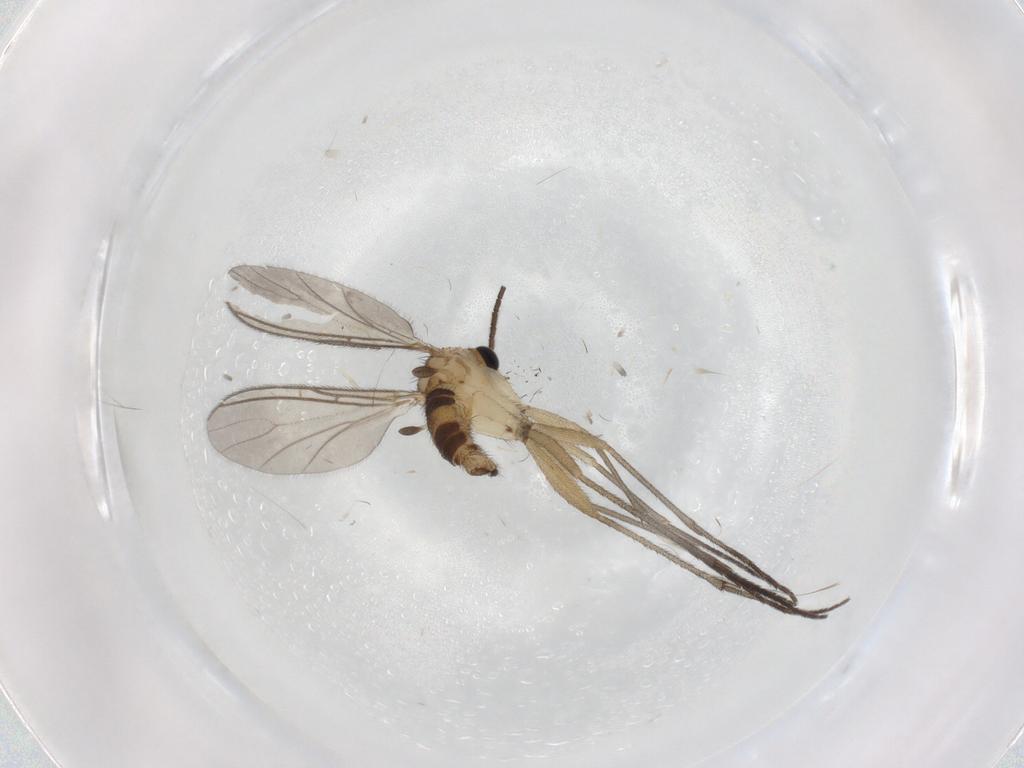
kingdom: Animalia
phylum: Arthropoda
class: Insecta
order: Diptera
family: Sciaridae
